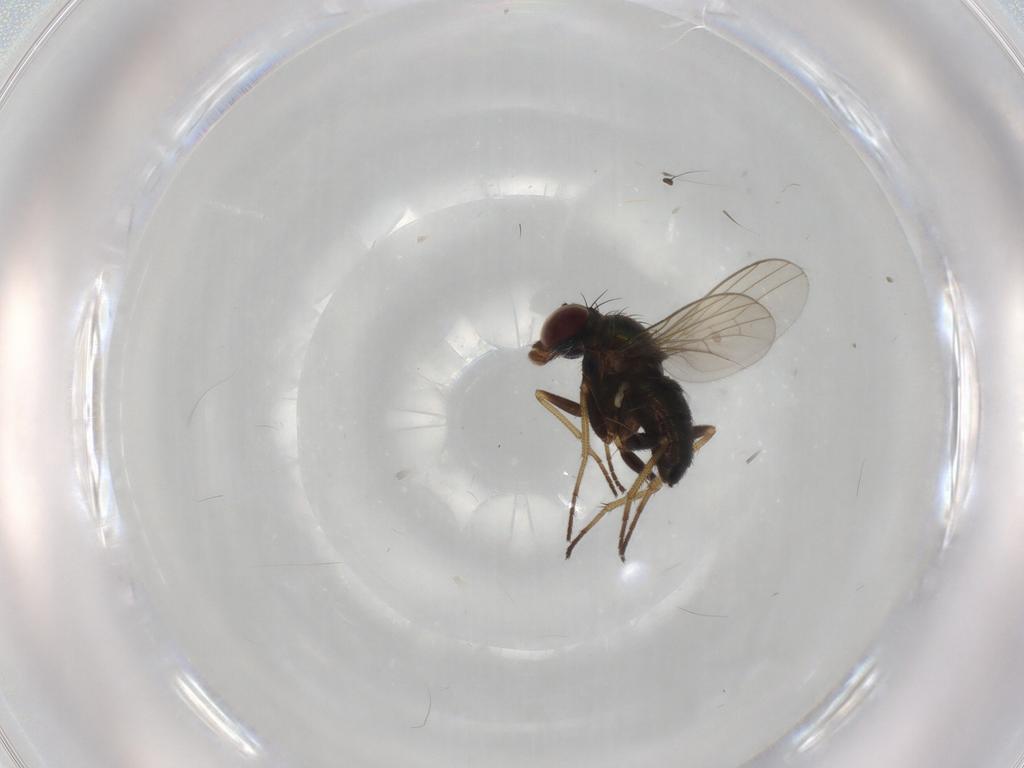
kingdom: Animalia
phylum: Arthropoda
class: Insecta
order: Diptera
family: Dolichopodidae
